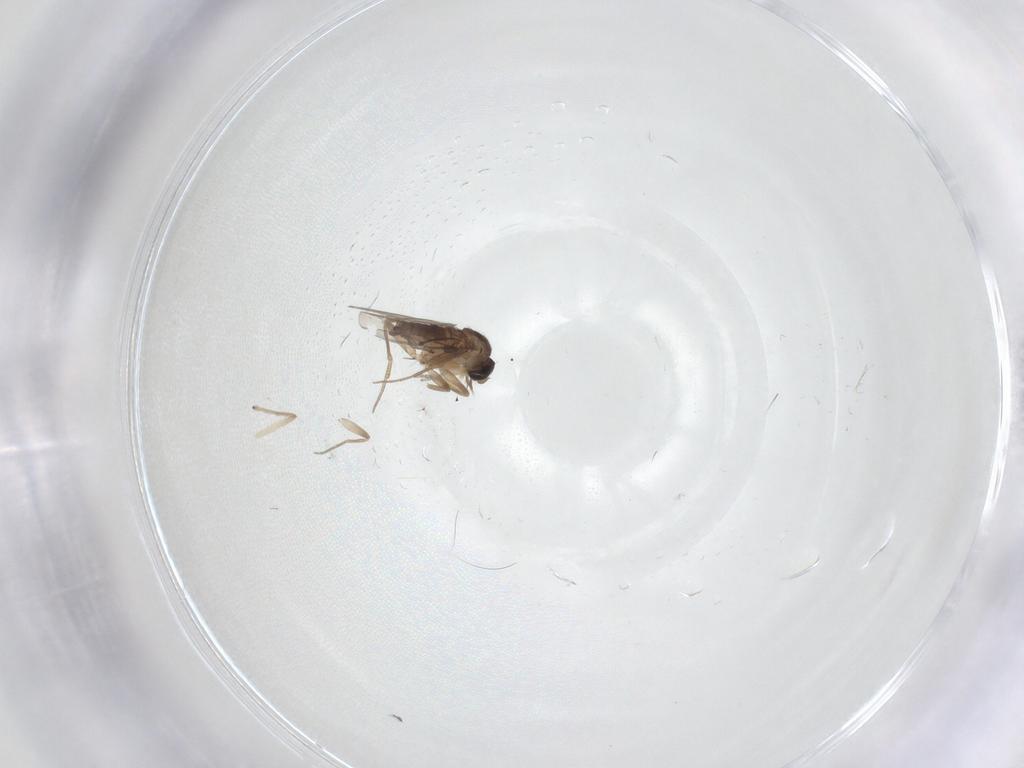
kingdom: Animalia
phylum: Arthropoda
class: Insecta
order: Diptera
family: Phoridae
